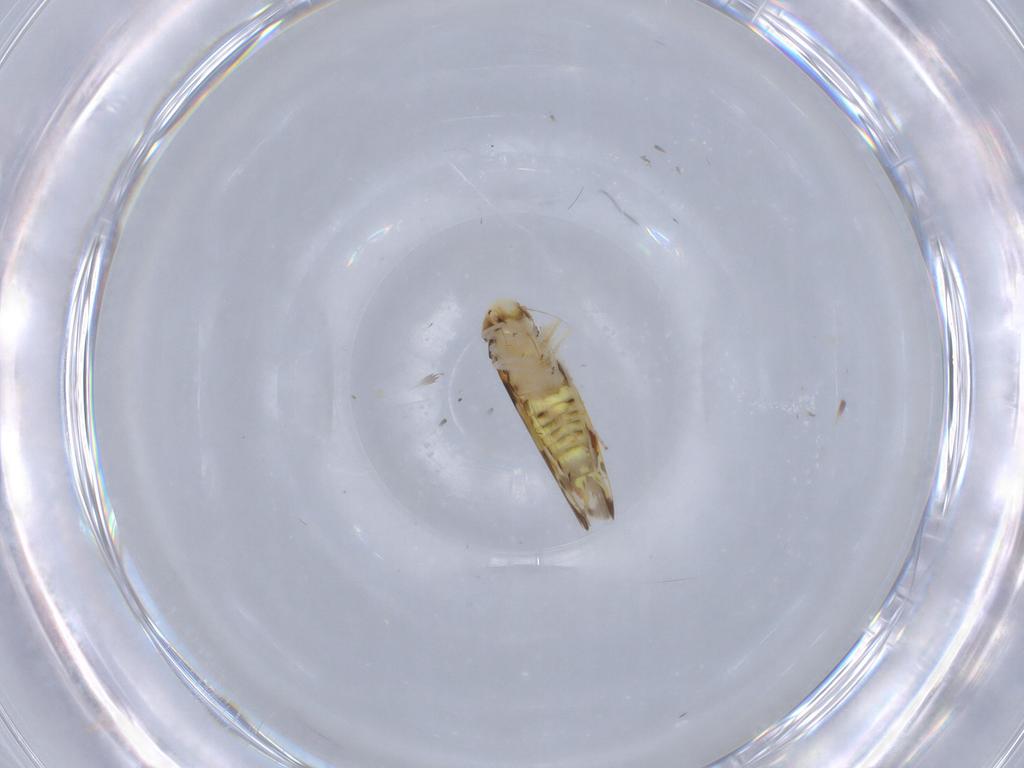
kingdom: Animalia
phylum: Arthropoda
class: Insecta
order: Hemiptera
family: Cicadellidae
